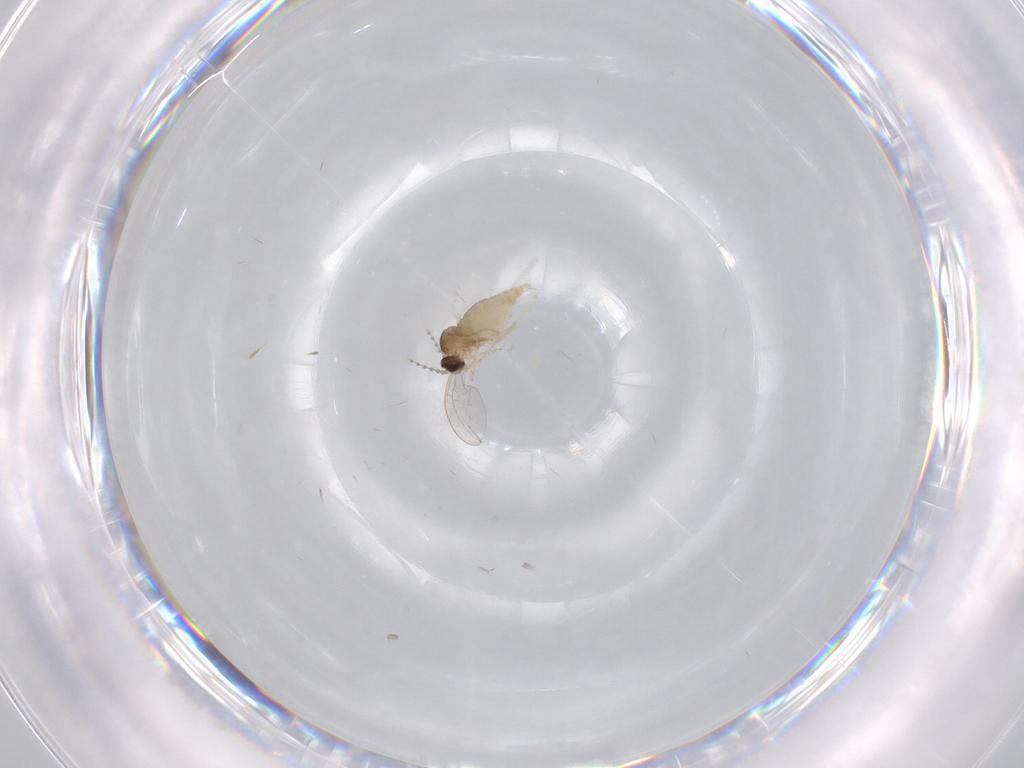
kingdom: Animalia
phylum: Arthropoda
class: Insecta
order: Diptera
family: Cecidomyiidae
